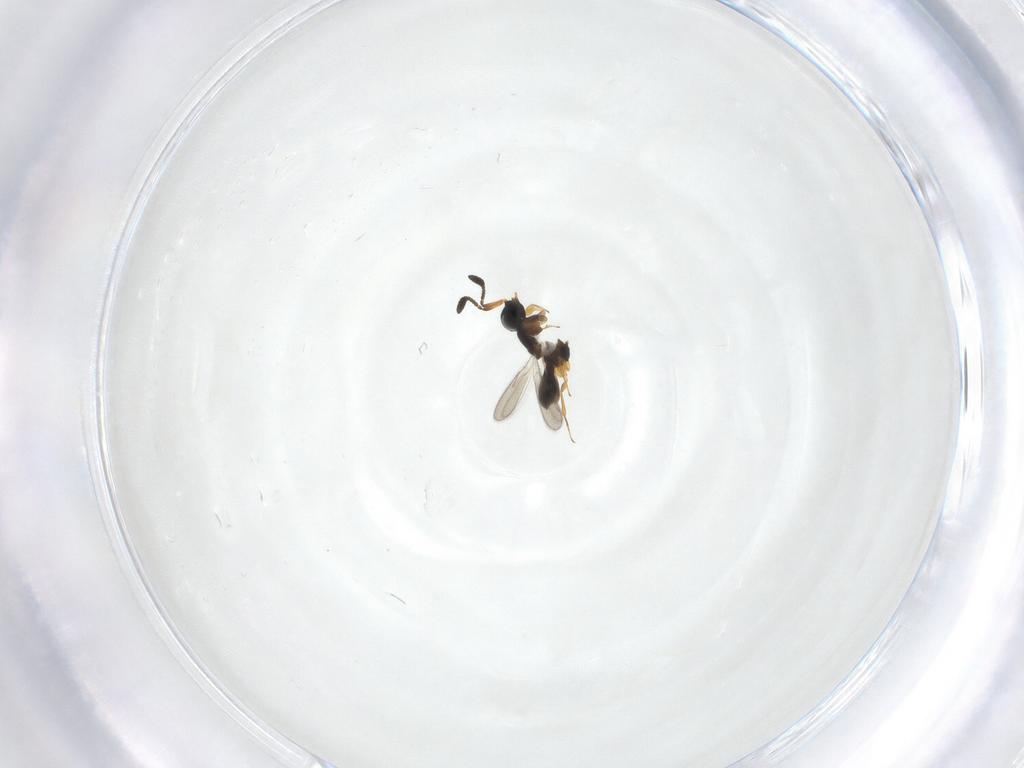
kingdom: Animalia
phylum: Arthropoda
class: Insecta
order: Hymenoptera
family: Scelionidae
